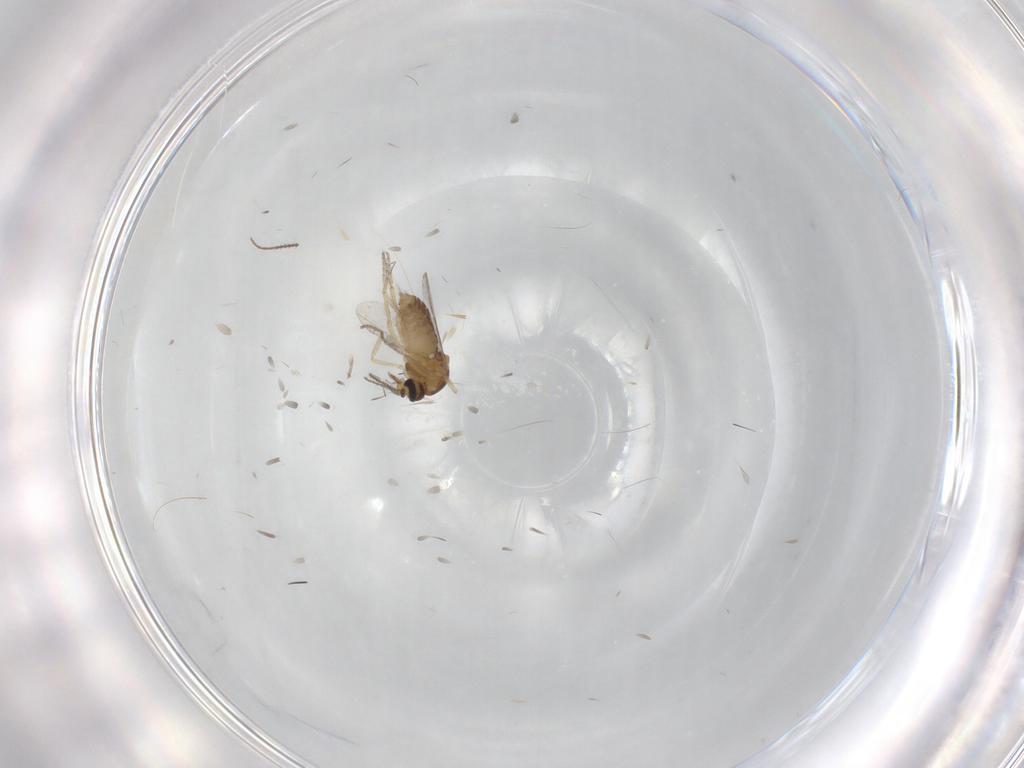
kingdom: Animalia
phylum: Arthropoda
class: Insecta
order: Diptera
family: Ceratopogonidae
